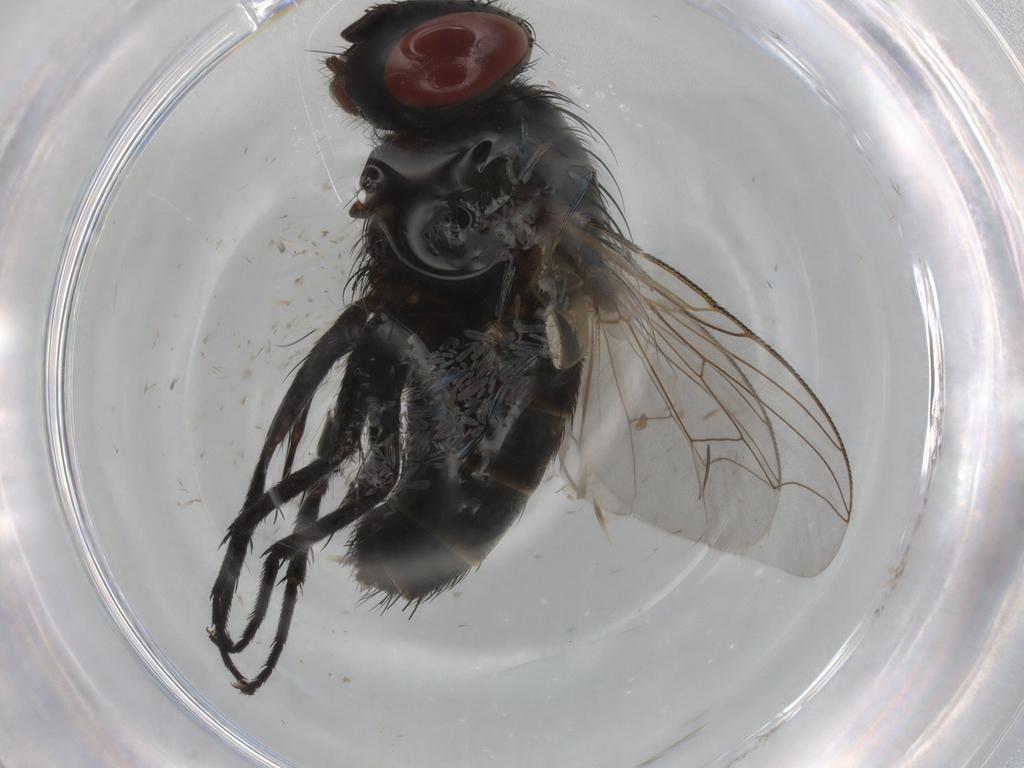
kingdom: Animalia
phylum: Arthropoda
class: Insecta
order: Diptera
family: Sarcophagidae
